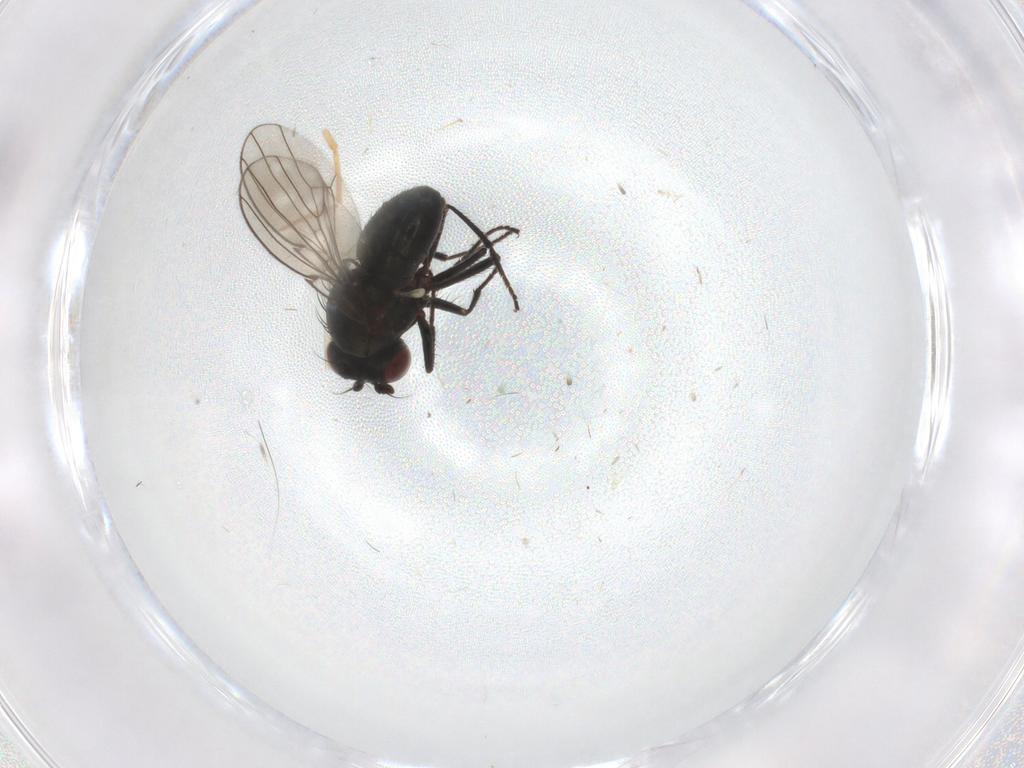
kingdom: Animalia
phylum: Arthropoda
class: Insecta
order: Diptera
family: Ephydridae
